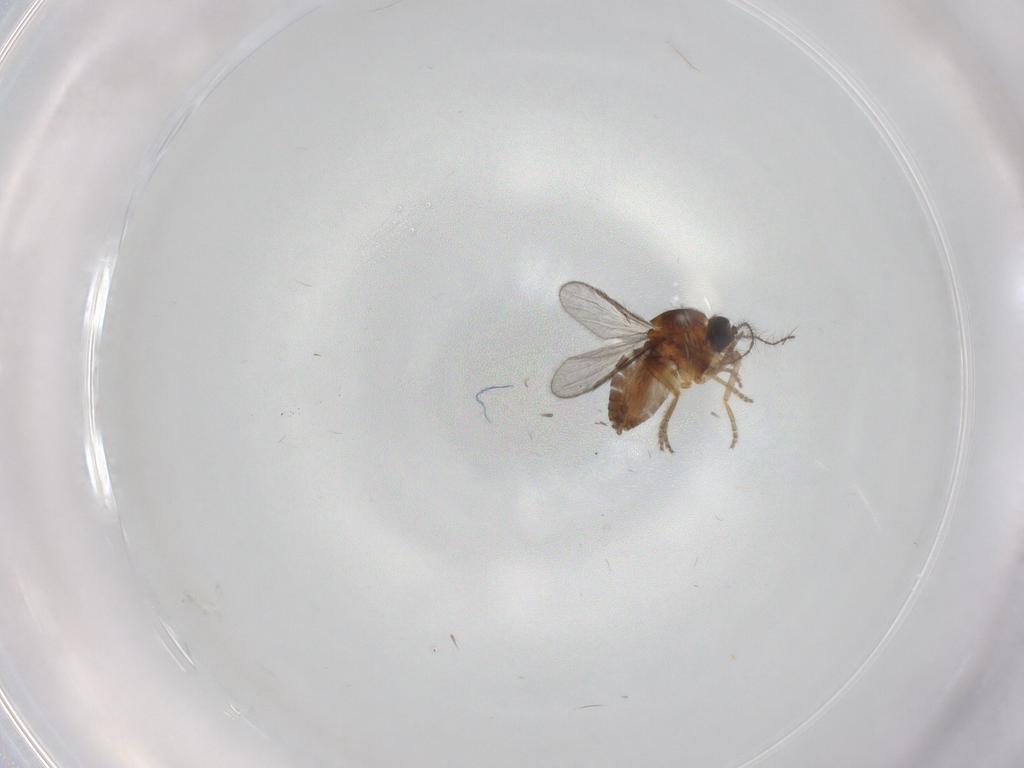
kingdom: Animalia
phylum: Arthropoda
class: Insecta
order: Diptera
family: Ceratopogonidae
